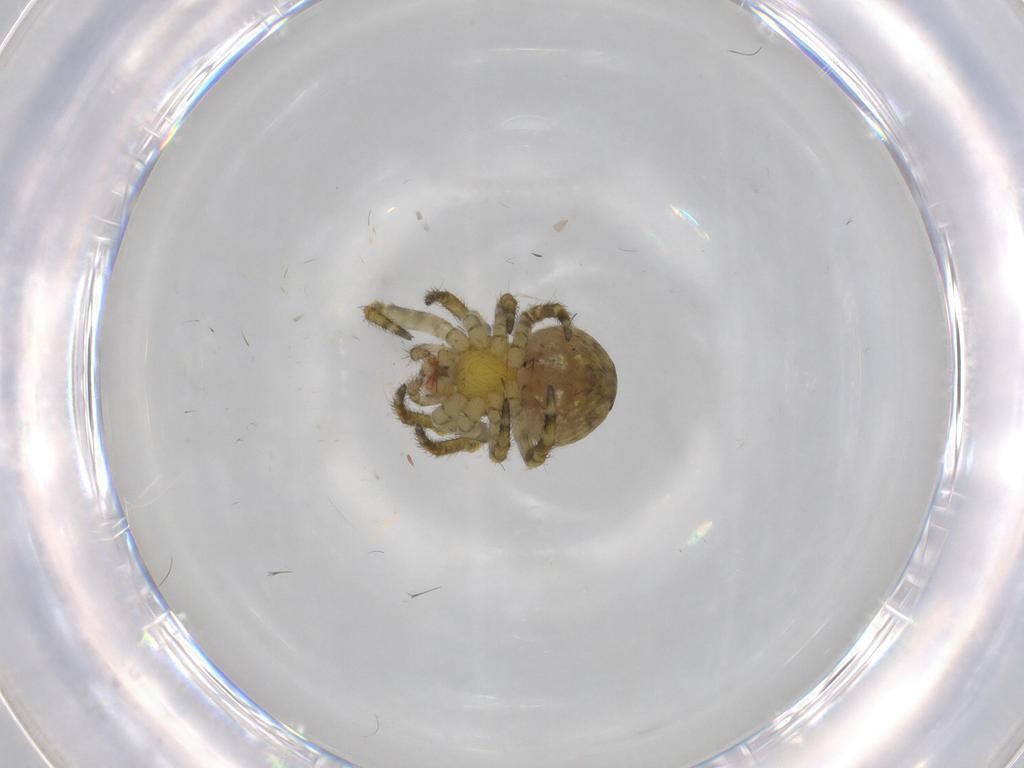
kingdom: Animalia
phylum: Arthropoda
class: Arachnida
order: Araneae
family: Araneidae
